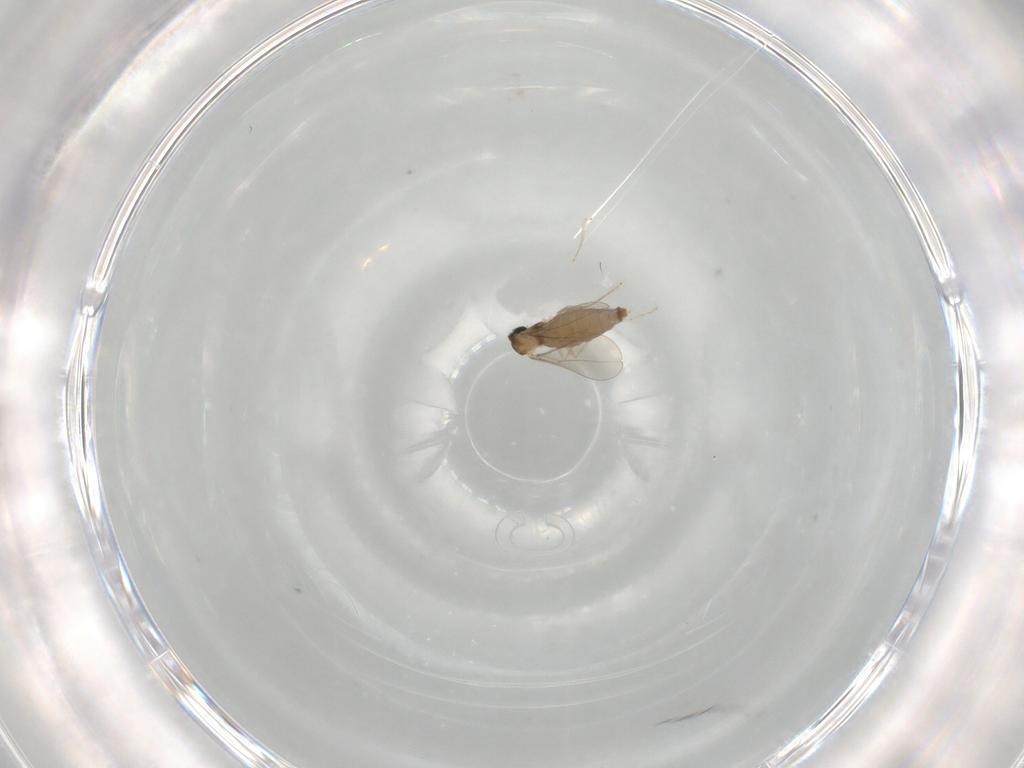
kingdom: Animalia
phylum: Arthropoda
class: Insecta
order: Diptera
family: Cecidomyiidae
